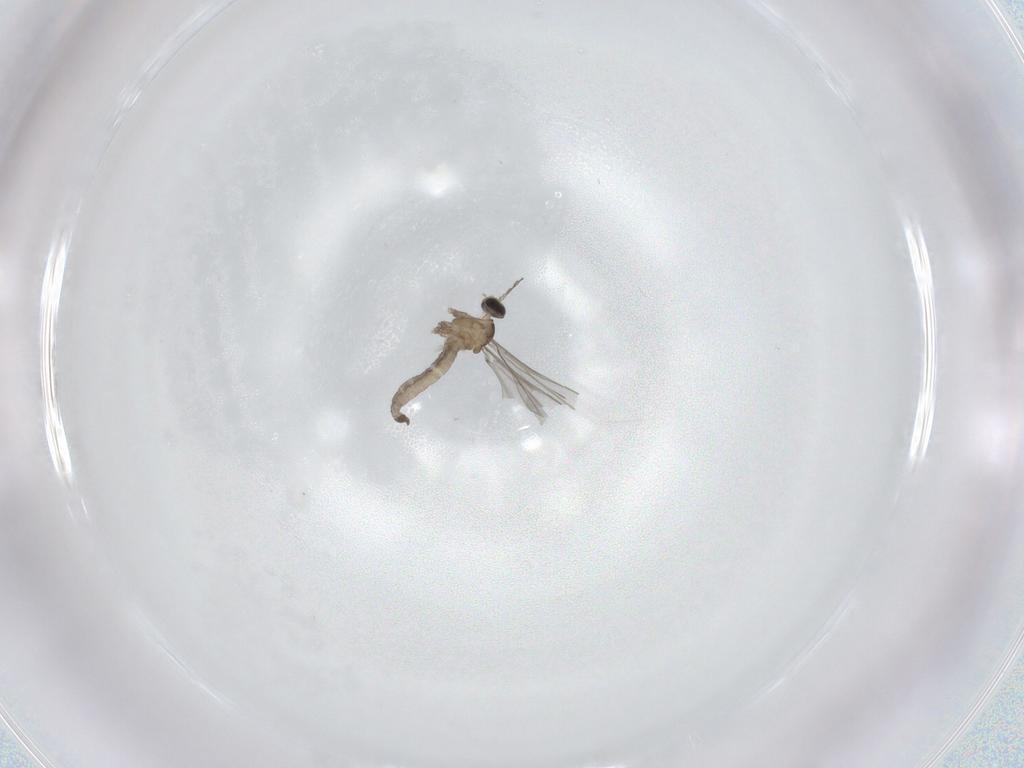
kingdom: Animalia
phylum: Arthropoda
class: Insecta
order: Diptera
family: Cecidomyiidae
